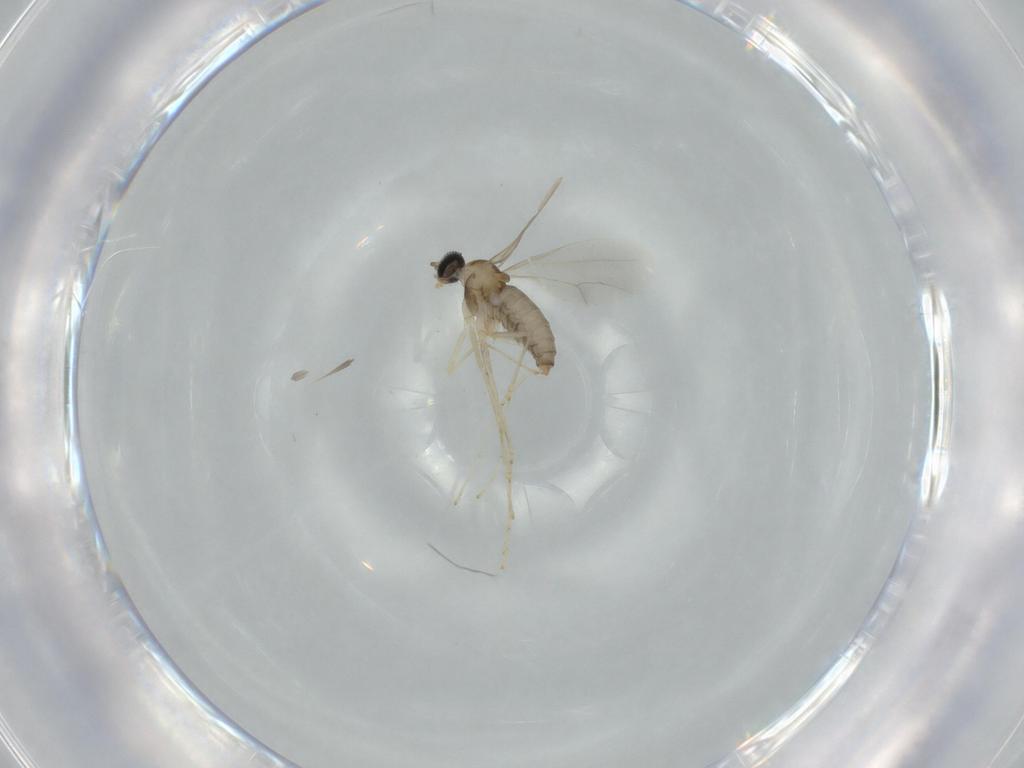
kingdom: Animalia
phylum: Arthropoda
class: Insecta
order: Diptera
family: Cecidomyiidae
